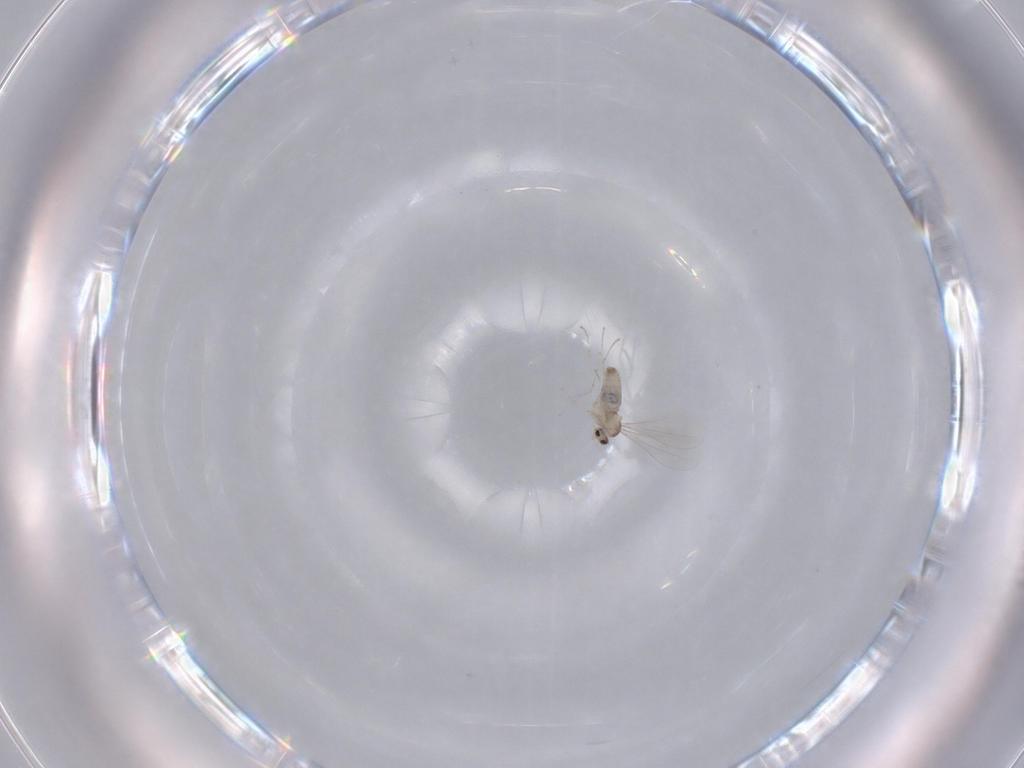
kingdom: Animalia
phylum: Arthropoda
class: Insecta
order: Diptera
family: Cecidomyiidae
